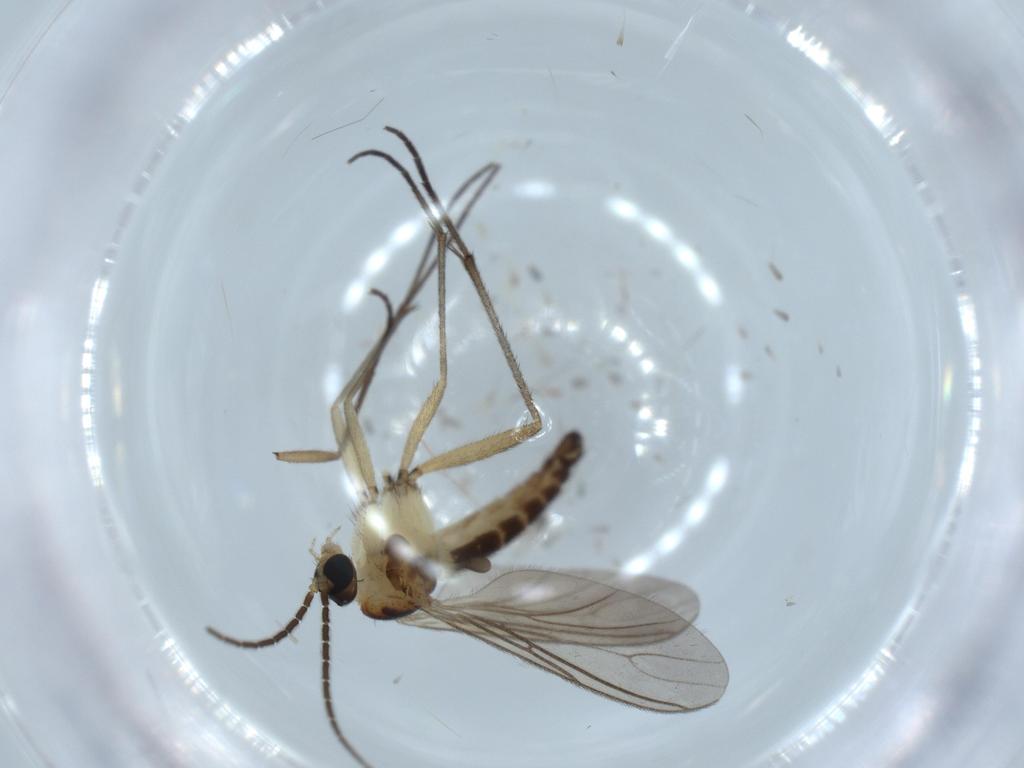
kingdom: Animalia
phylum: Arthropoda
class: Insecta
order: Diptera
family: Sciaridae
